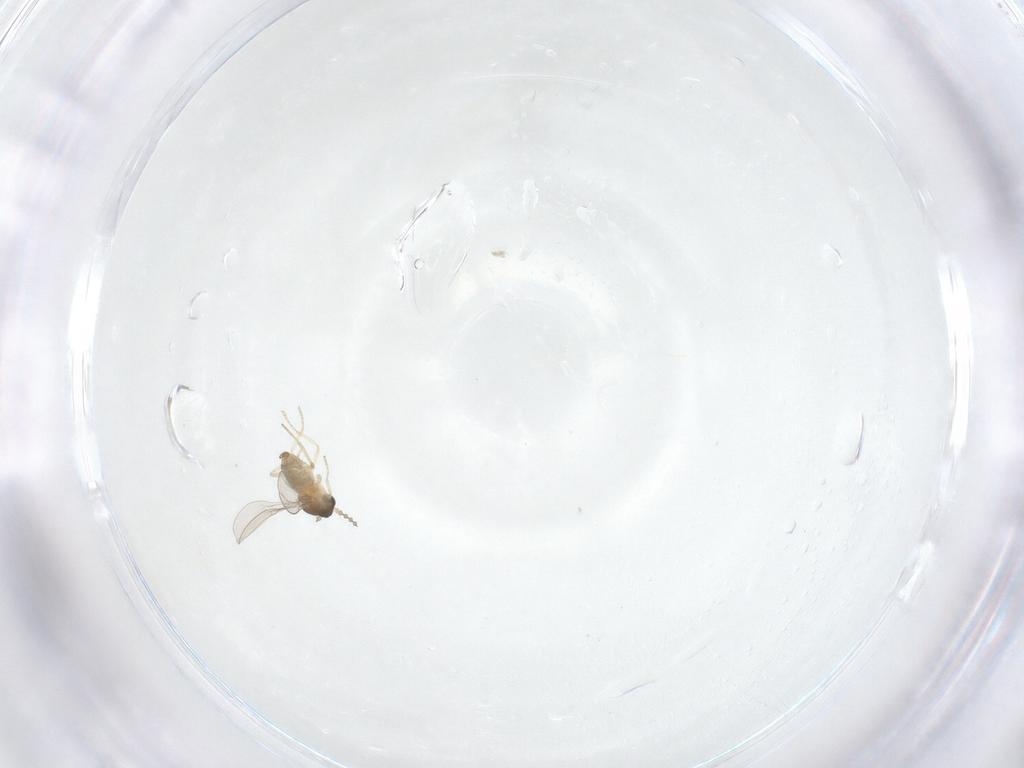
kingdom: Animalia
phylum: Arthropoda
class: Insecta
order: Diptera
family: Cecidomyiidae
